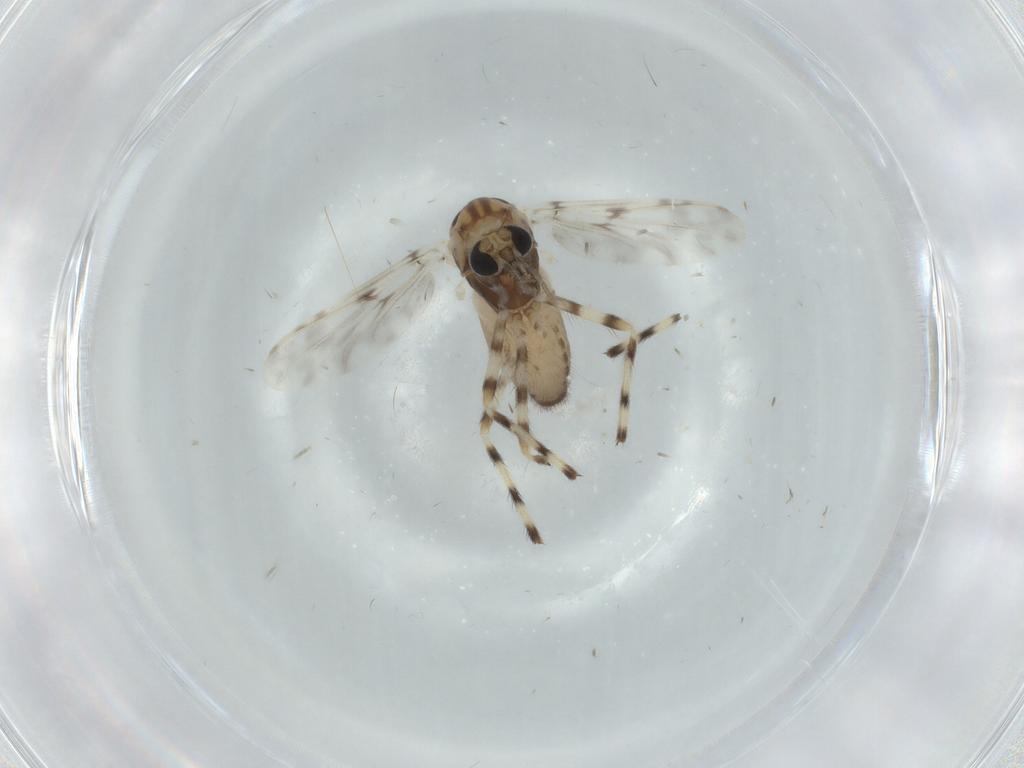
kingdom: Animalia
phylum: Arthropoda
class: Insecta
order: Diptera
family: Chironomidae
